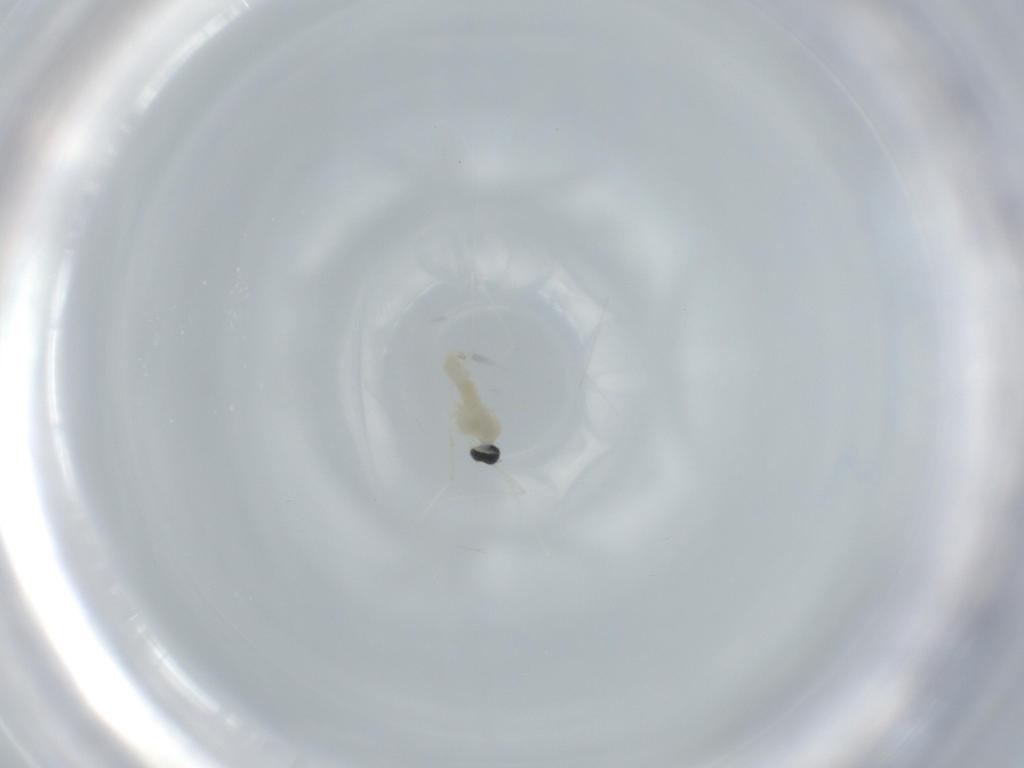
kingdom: Animalia
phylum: Arthropoda
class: Insecta
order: Diptera
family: Cecidomyiidae
